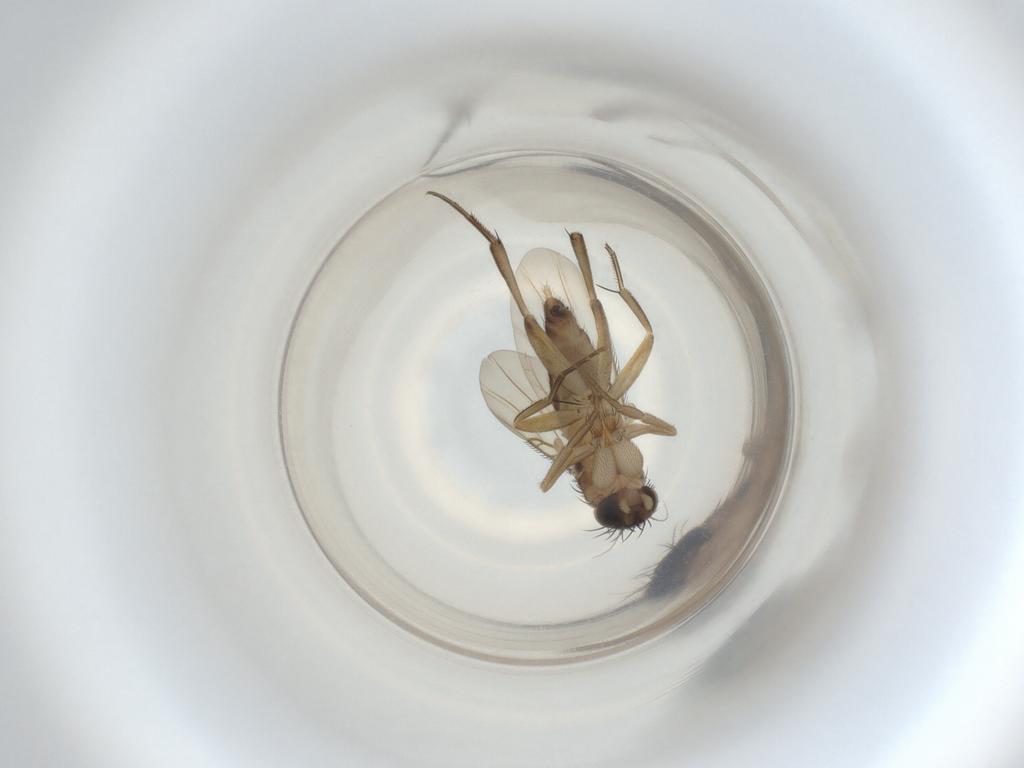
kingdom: Animalia
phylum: Arthropoda
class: Insecta
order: Diptera
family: Phoridae
